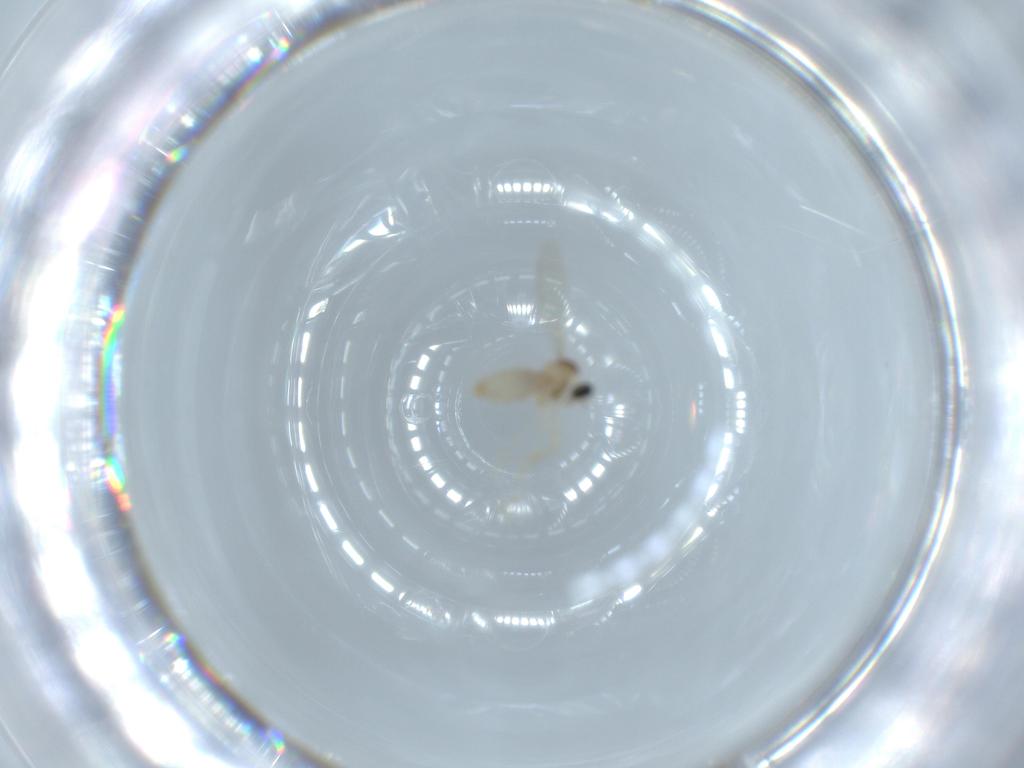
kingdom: Animalia
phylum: Arthropoda
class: Insecta
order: Diptera
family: Cecidomyiidae
